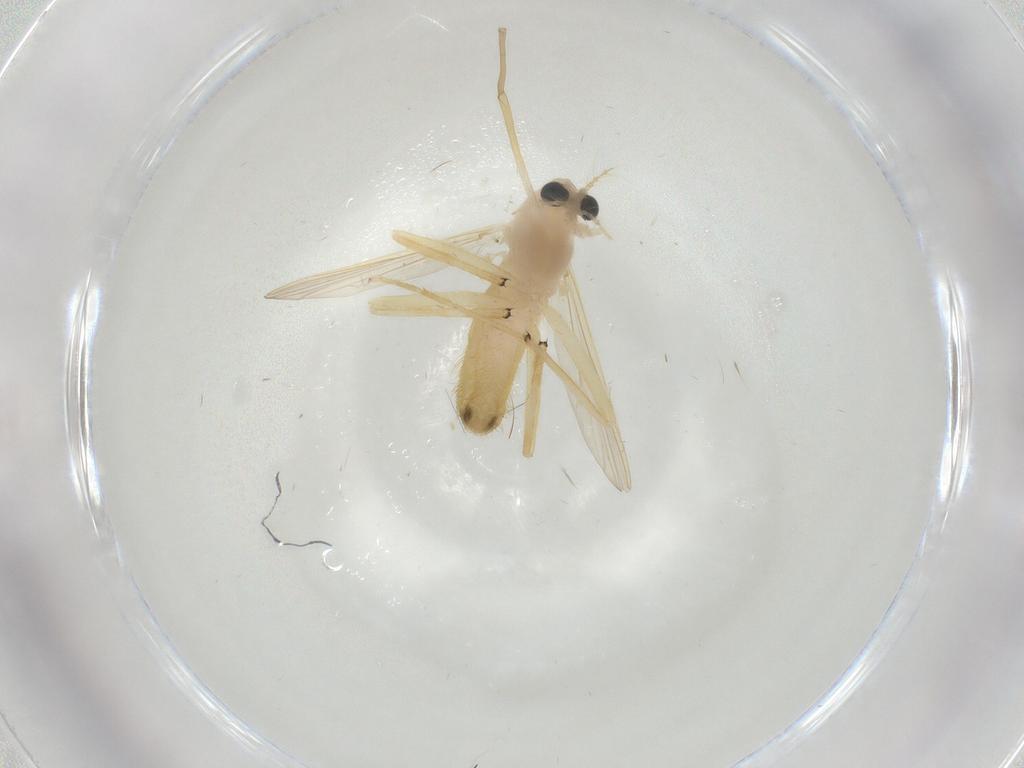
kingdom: Animalia
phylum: Arthropoda
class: Insecta
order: Diptera
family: Chironomidae
